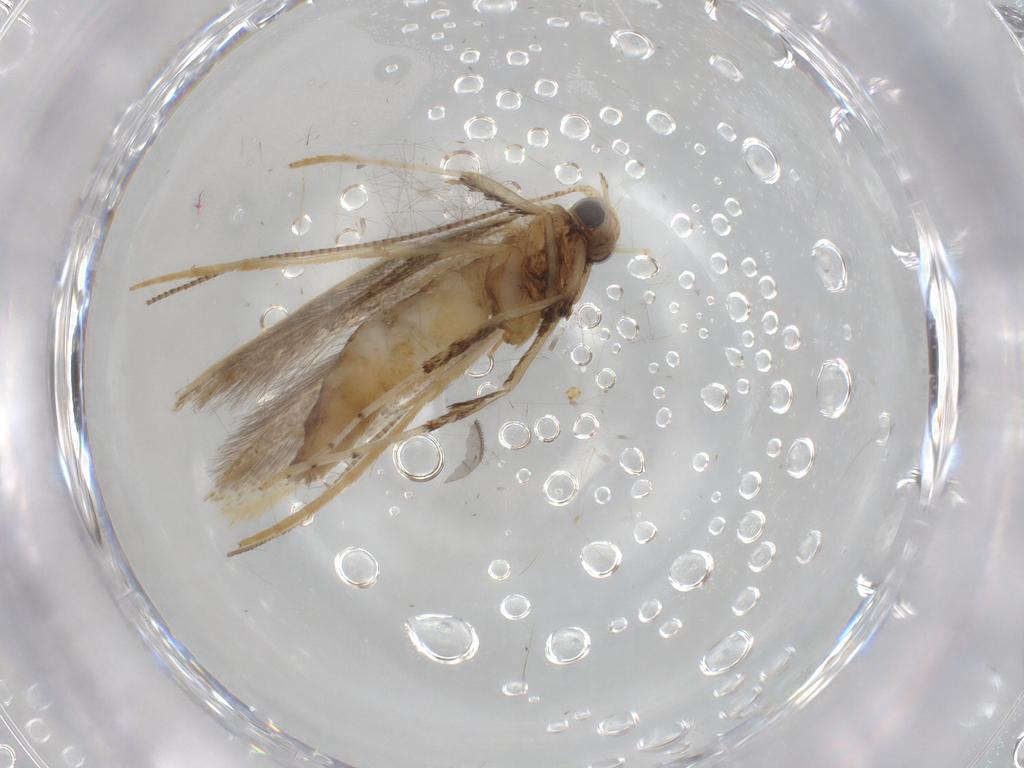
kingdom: Animalia
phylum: Arthropoda
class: Insecta
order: Lepidoptera
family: Gracillariidae
